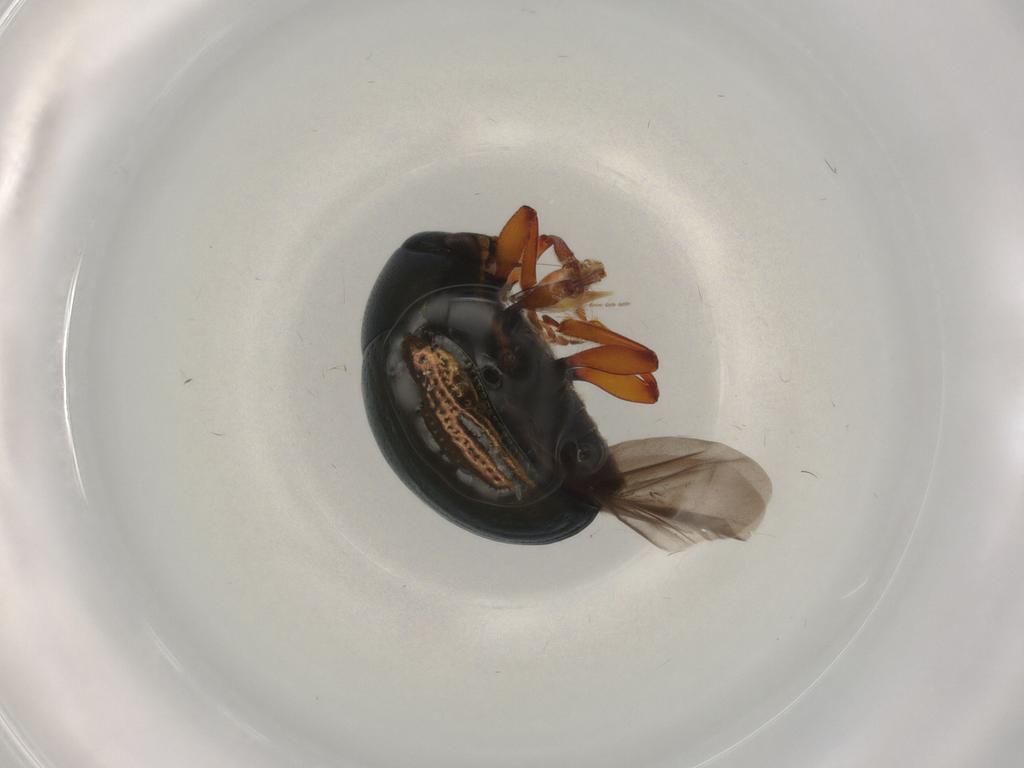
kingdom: Animalia
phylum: Arthropoda
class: Insecta
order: Coleoptera
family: Chrysomelidae
